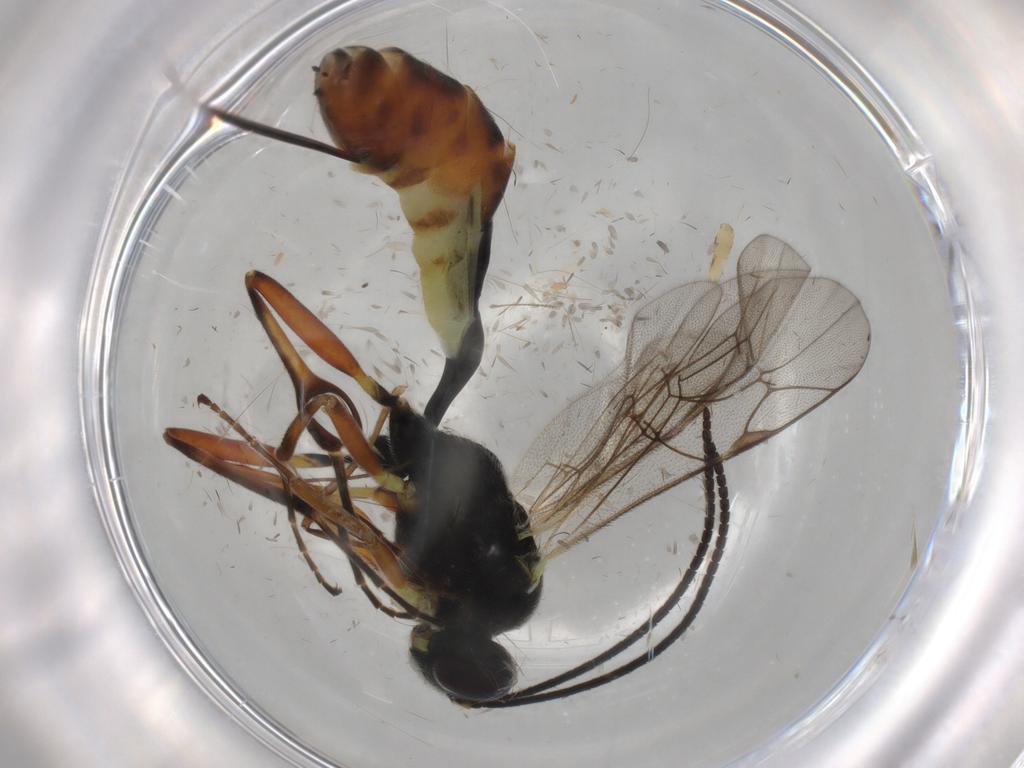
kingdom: Animalia
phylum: Arthropoda
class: Insecta
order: Hymenoptera
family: Ichneumonidae
